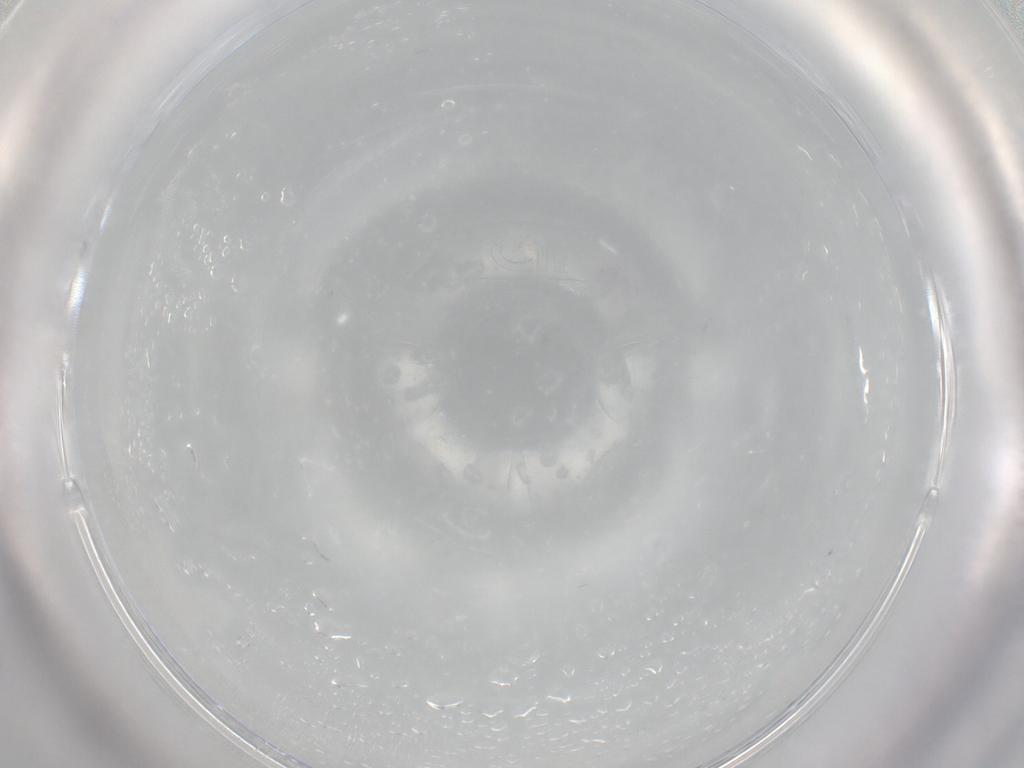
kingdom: Animalia
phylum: Arthropoda
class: Collembola
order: Entomobryomorpha
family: Entomobryidae
